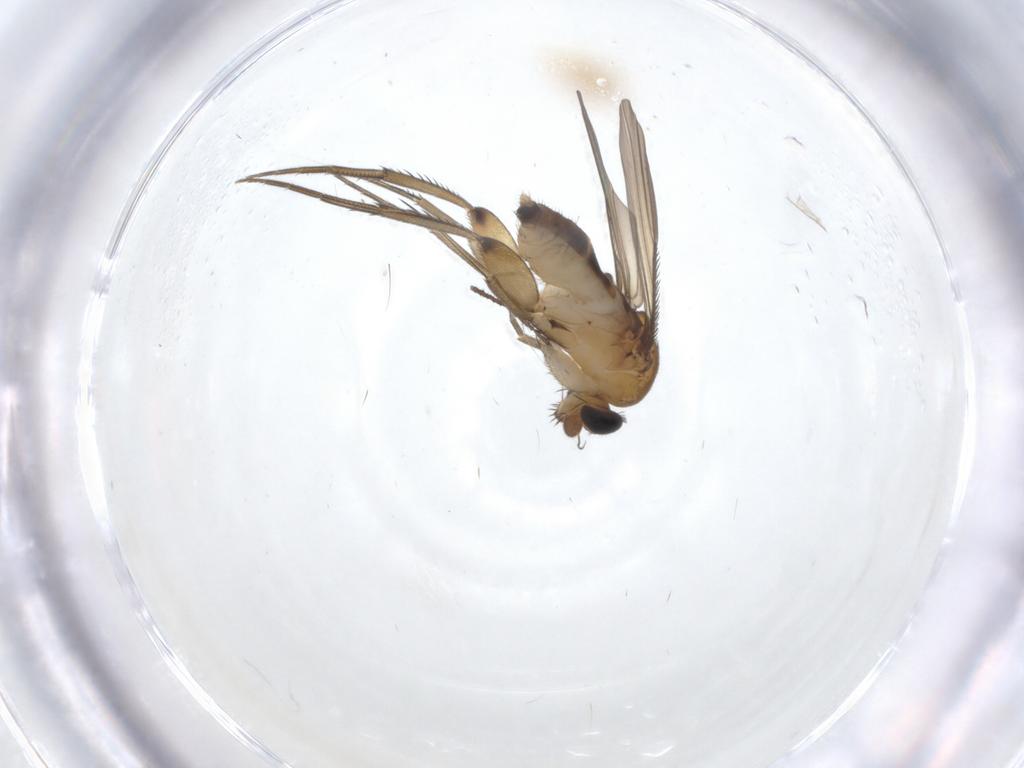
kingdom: Animalia
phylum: Arthropoda
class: Insecta
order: Diptera
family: Phoridae
